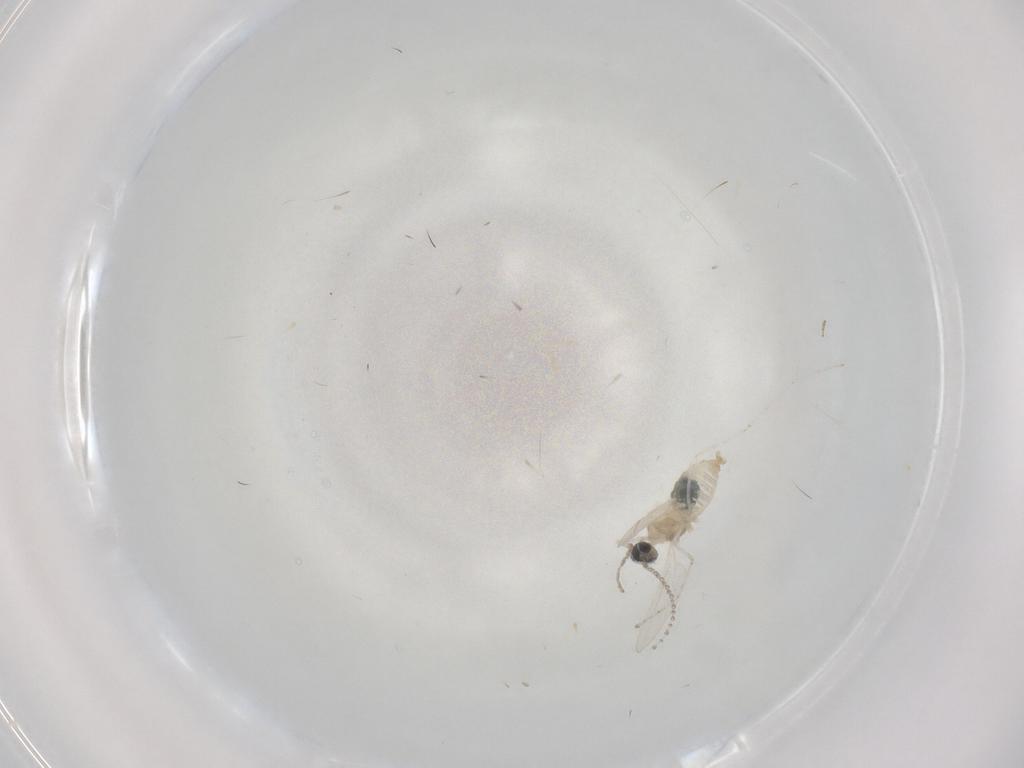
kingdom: Animalia
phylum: Arthropoda
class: Insecta
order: Diptera
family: Cecidomyiidae
